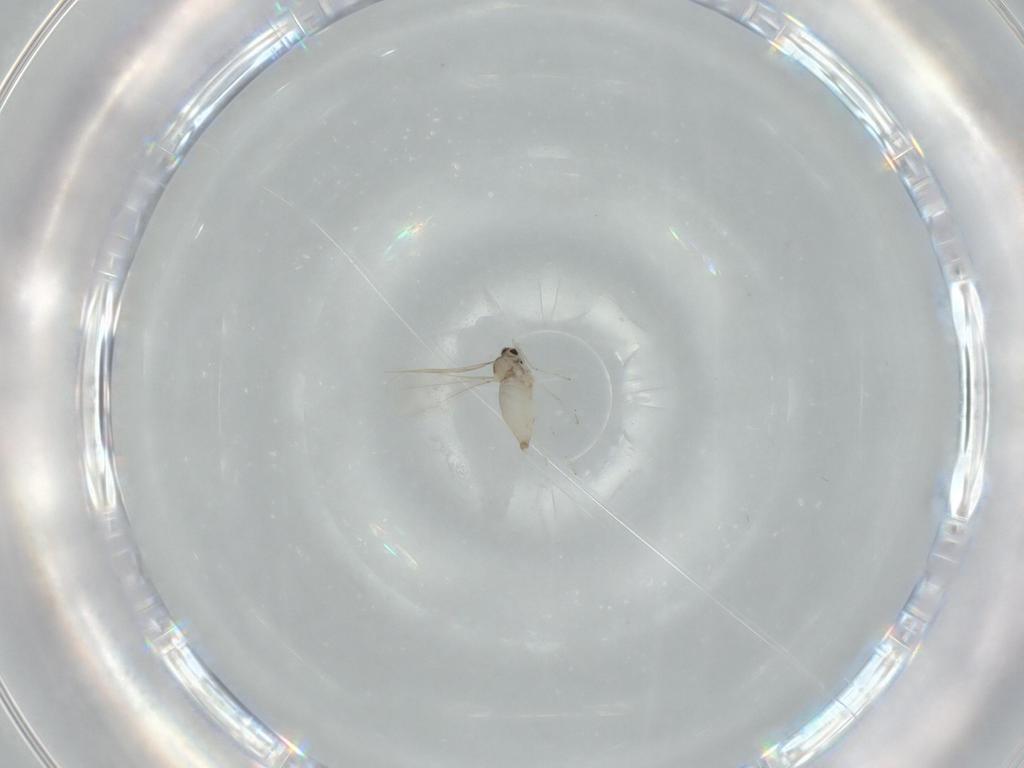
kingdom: Animalia
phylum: Arthropoda
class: Insecta
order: Diptera
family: Cecidomyiidae
